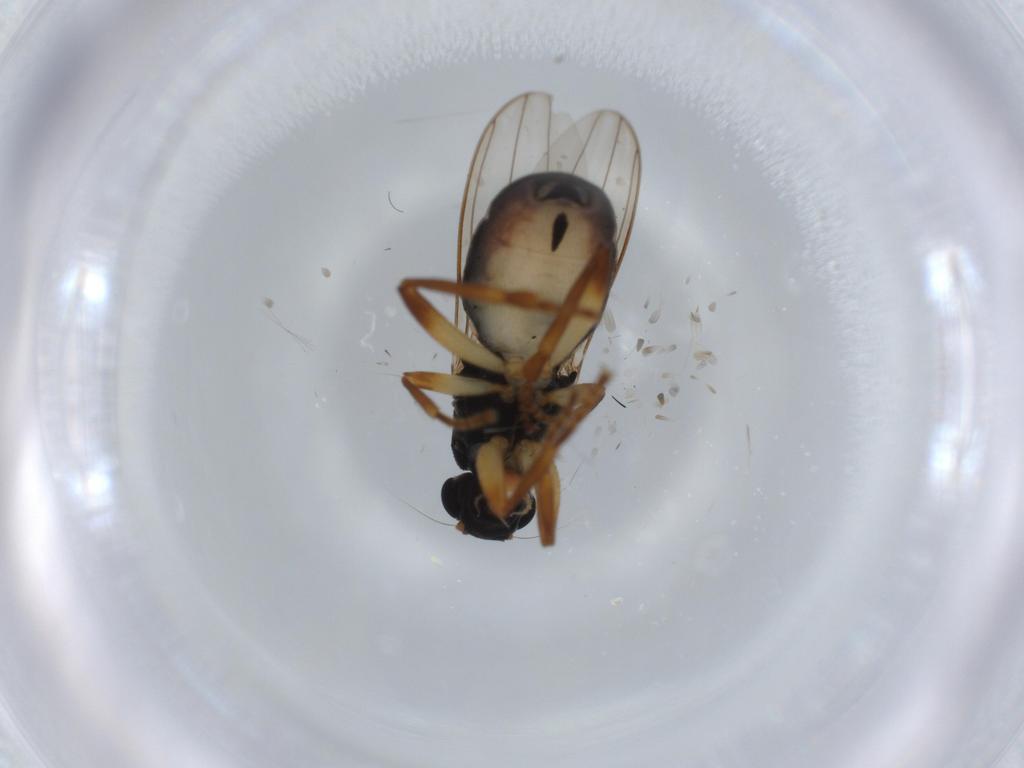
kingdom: Animalia
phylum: Arthropoda
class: Insecta
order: Diptera
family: Sphaeroceridae
